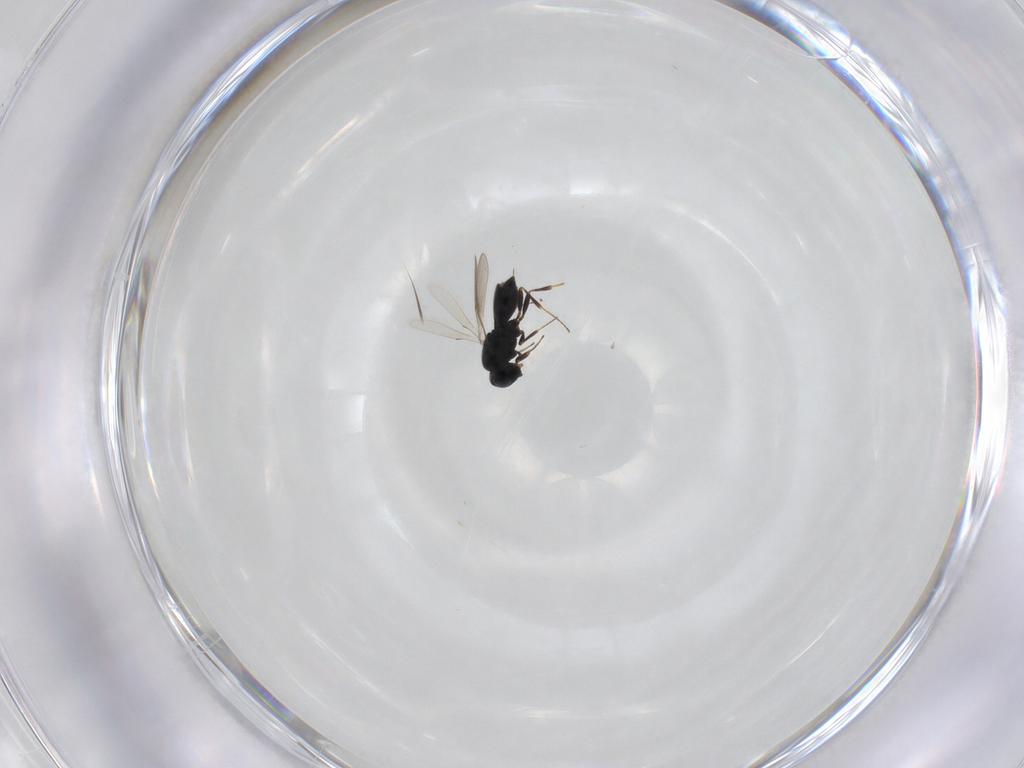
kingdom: Animalia
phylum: Arthropoda
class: Insecta
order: Hymenoptera
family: Scelionidae
